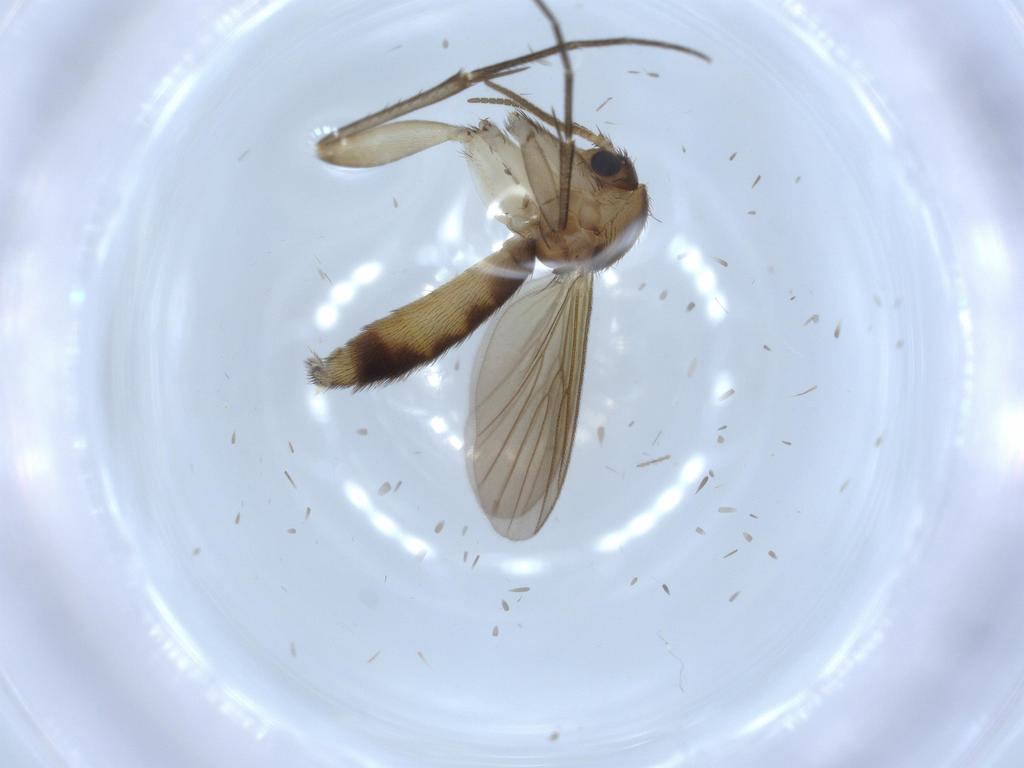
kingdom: Animalia
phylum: Arthropoda
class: Insecta
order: Diptera
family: Mycetophilidae
